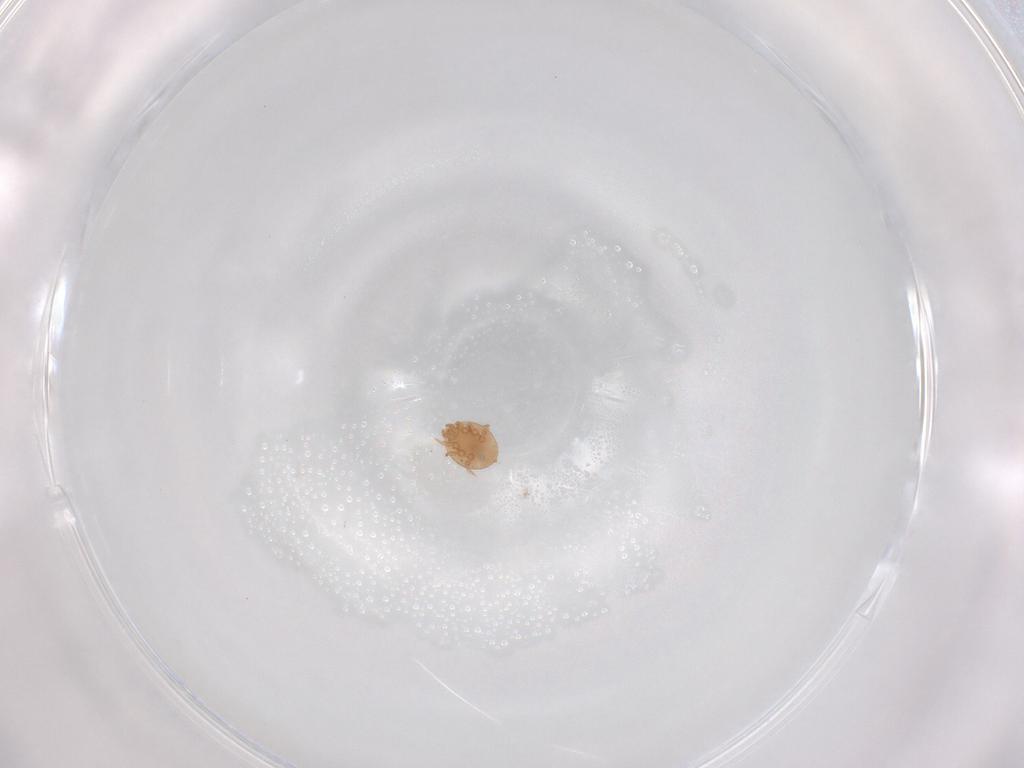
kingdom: Animalia
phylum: Arthropoda
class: Arachnida
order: Mesostigmata
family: Trematuridae
